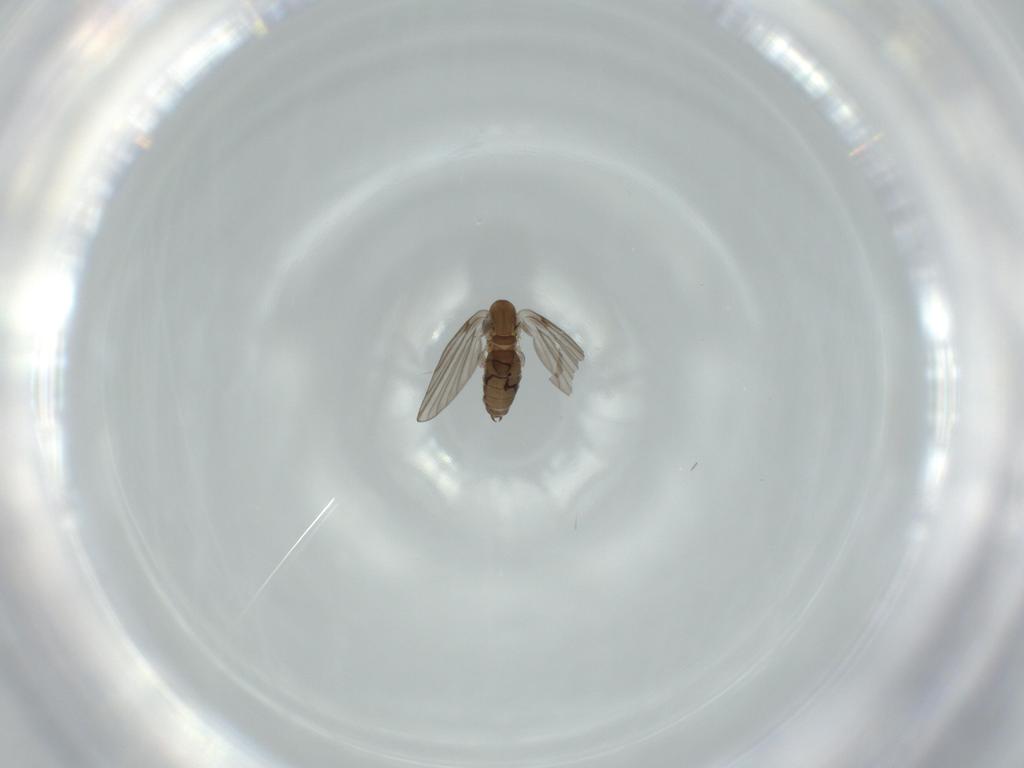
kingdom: Animalia
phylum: Arthropoda
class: Insecta
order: Diptera
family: Psychodidae
